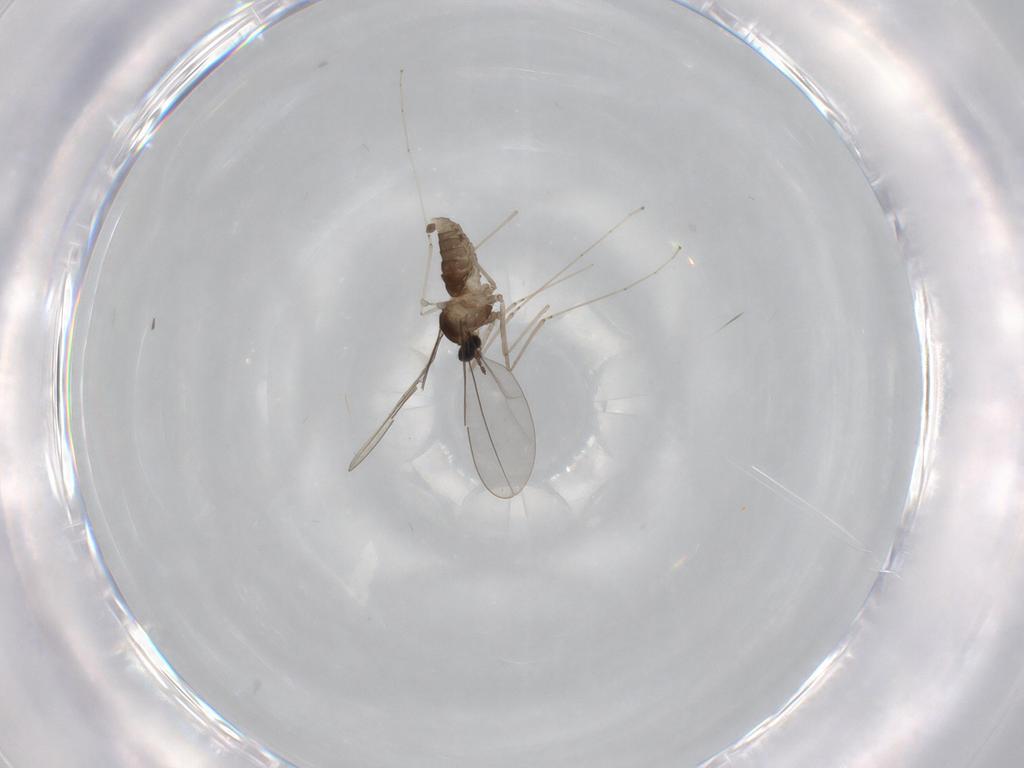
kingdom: Animalia
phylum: Arthropoda
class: Insecta
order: Diptera
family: Cecidomyiidae
